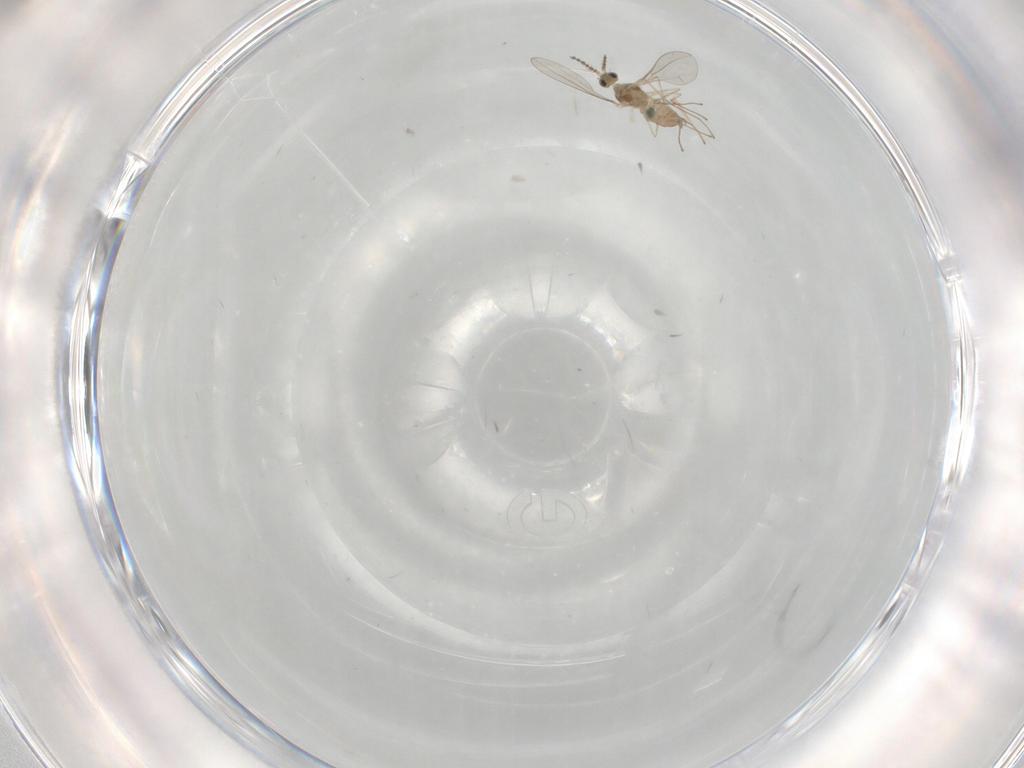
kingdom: Animalia
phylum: Arthropoda
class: Insecta
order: Diptera
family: Cecidomyiidae
